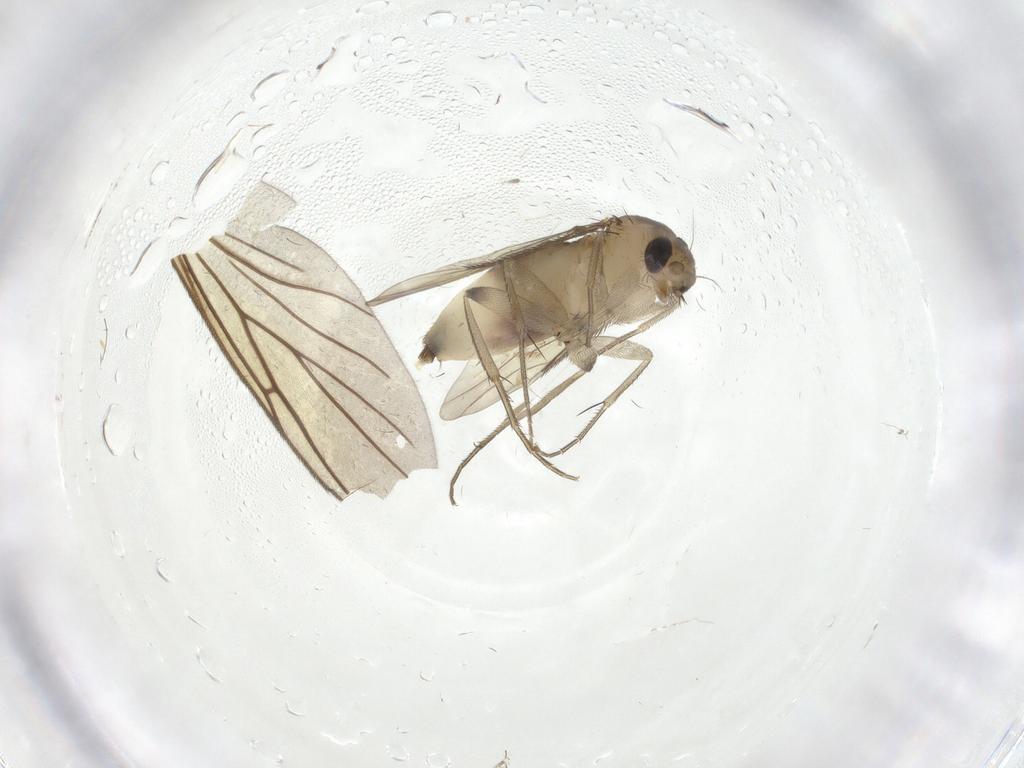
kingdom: Animalia
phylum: Arthropoda
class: Insecta
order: Diptera
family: Phoridae
